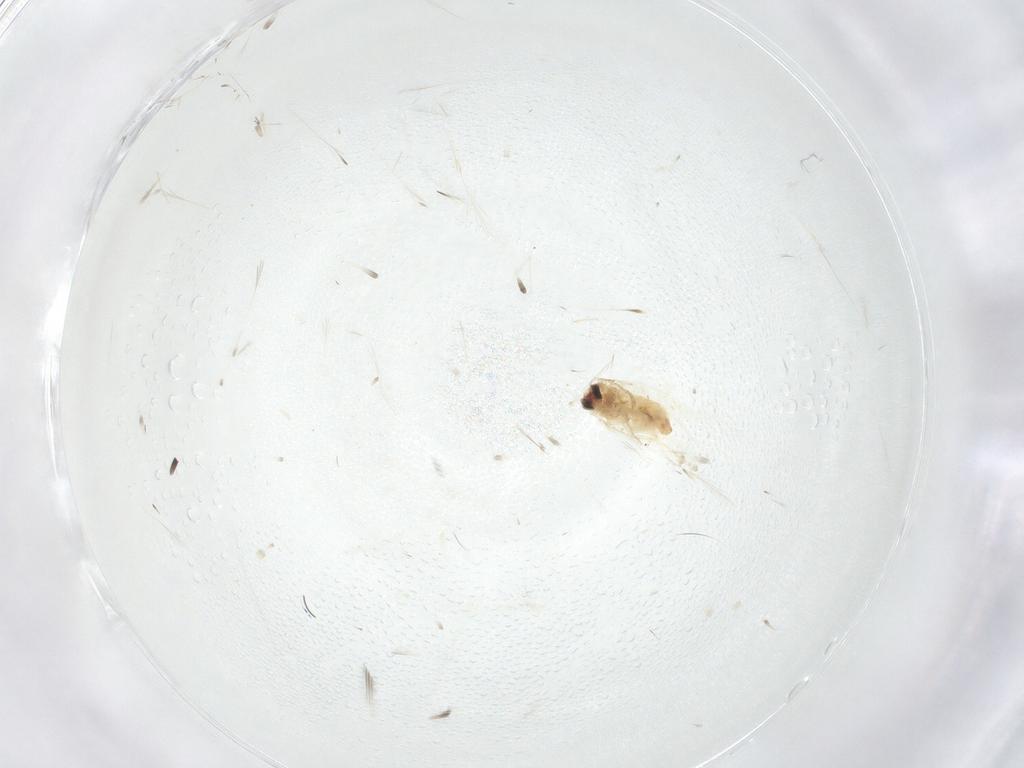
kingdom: Animalia
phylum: Arthropoda
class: Insecta
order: Lepidoptera
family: Crambidae
